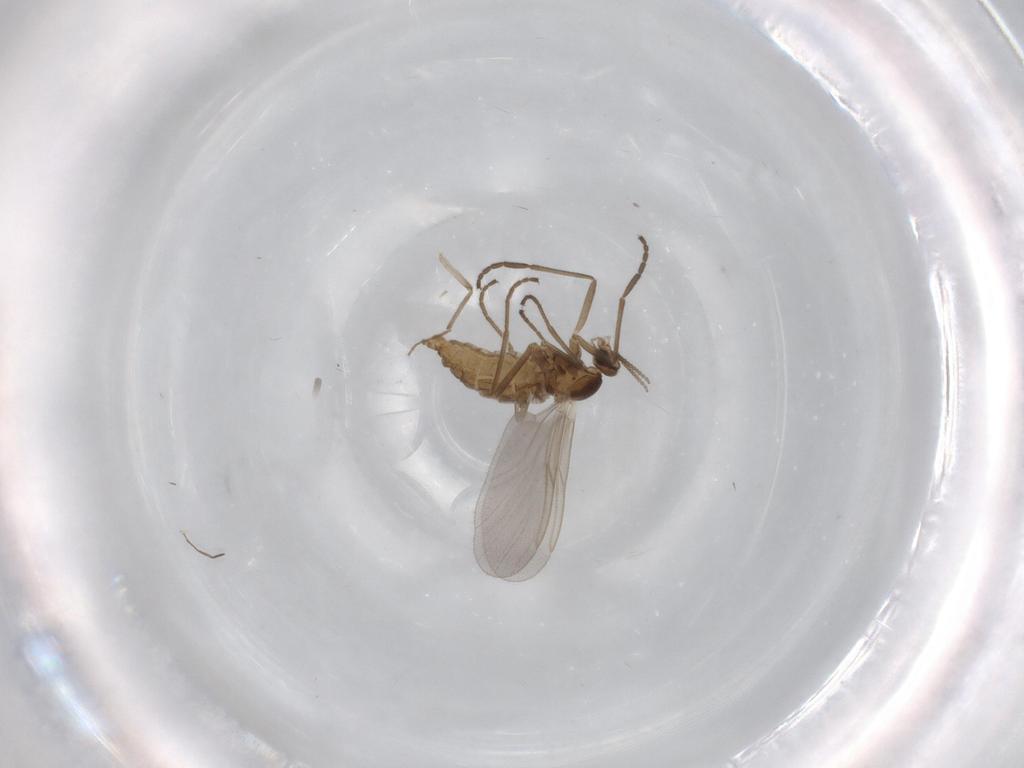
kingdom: Animalia
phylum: Arthropoda
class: Insecta
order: Diptera
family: Cecidomyiidae
